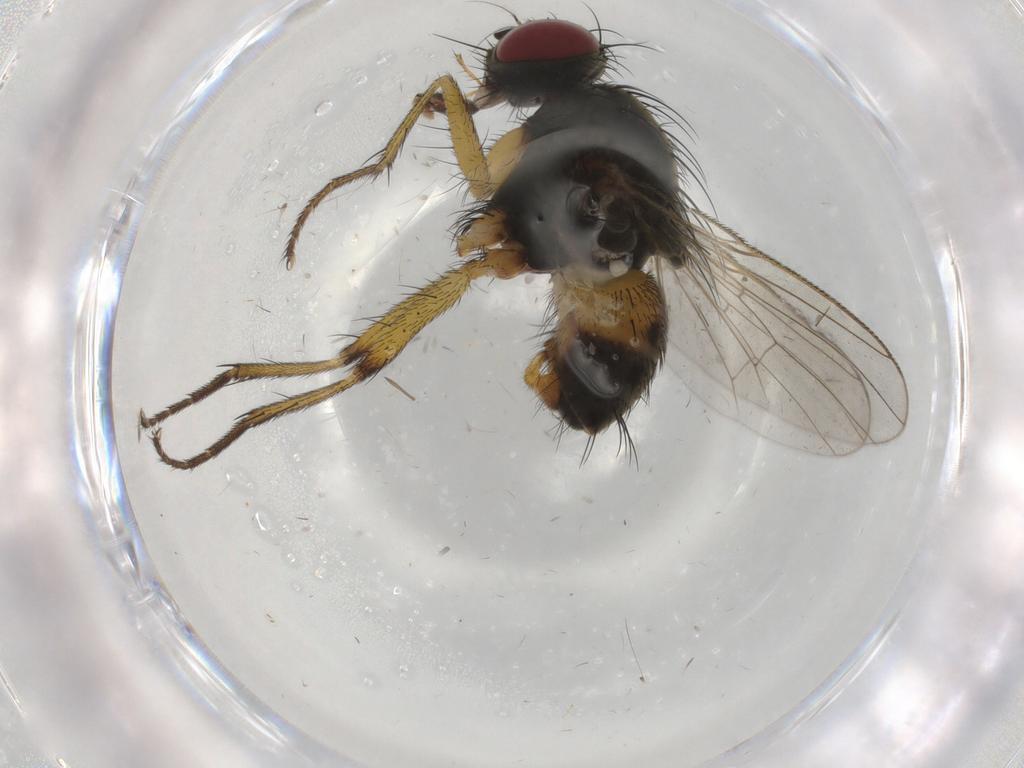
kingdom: Animalia
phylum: Arthropoda
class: Insecta
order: Diptera
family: Muscidae
